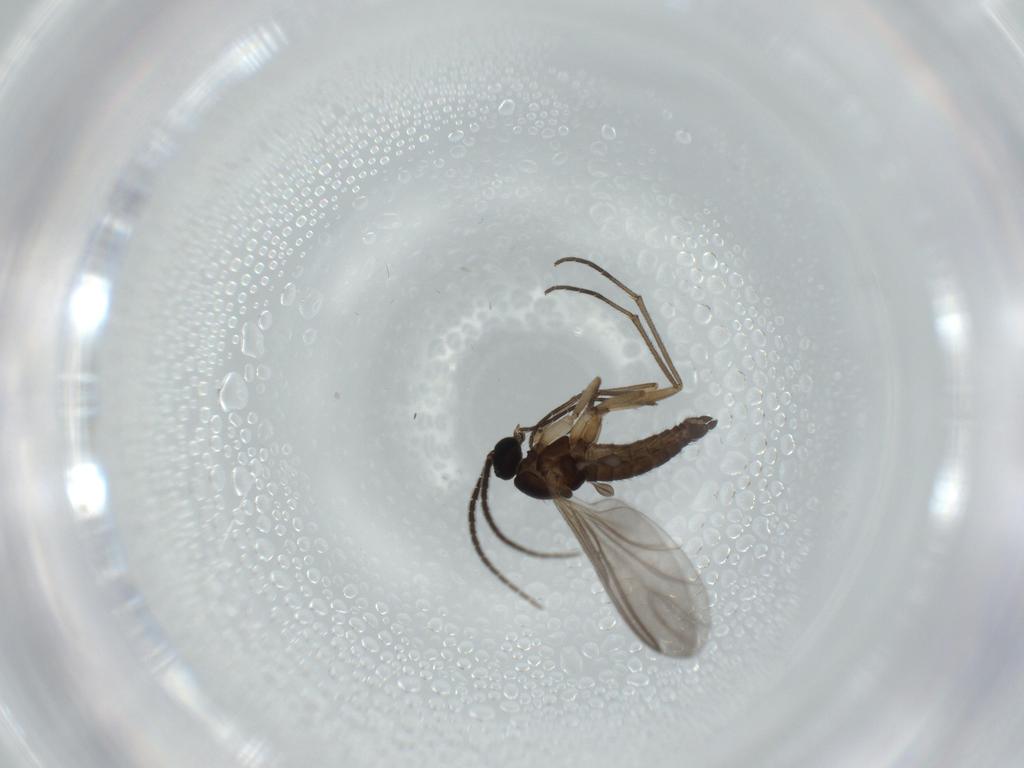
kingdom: Animalia
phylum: Arthropoda
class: Insecta
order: Diptera
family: Sciaridae
